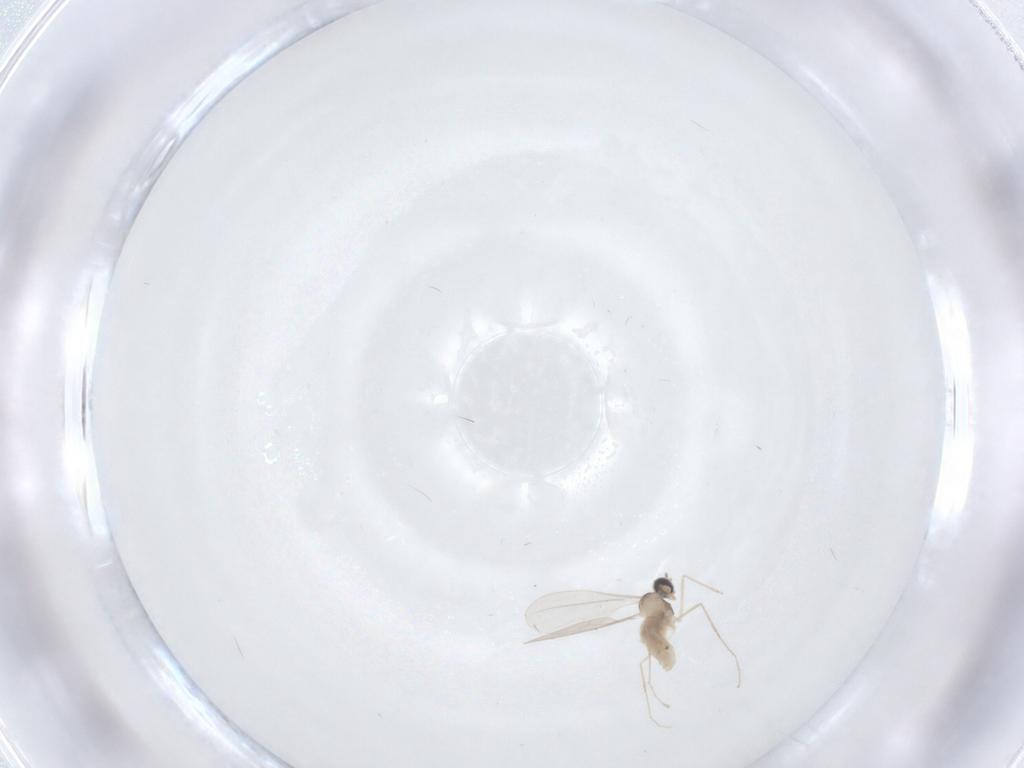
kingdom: Animalia
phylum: Arthropoda
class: Insecta
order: Diptera
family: Ceratopogonidae
